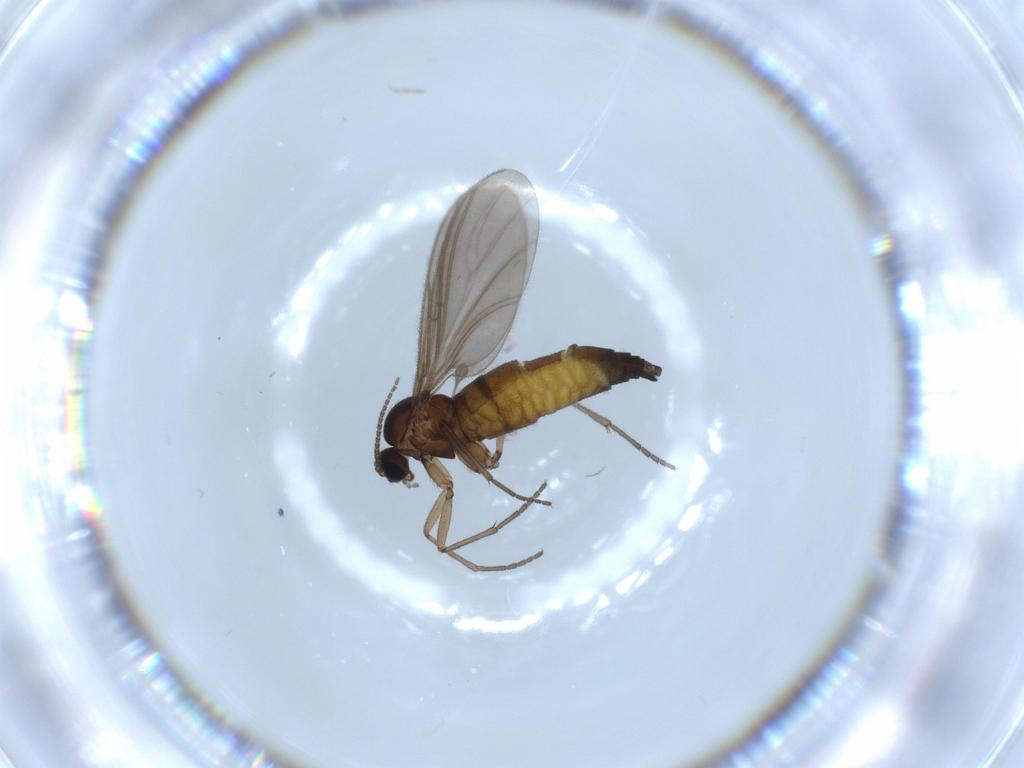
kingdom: Animalia
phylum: Arthropoda
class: Insecta
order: Diptera
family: Sciaridae
